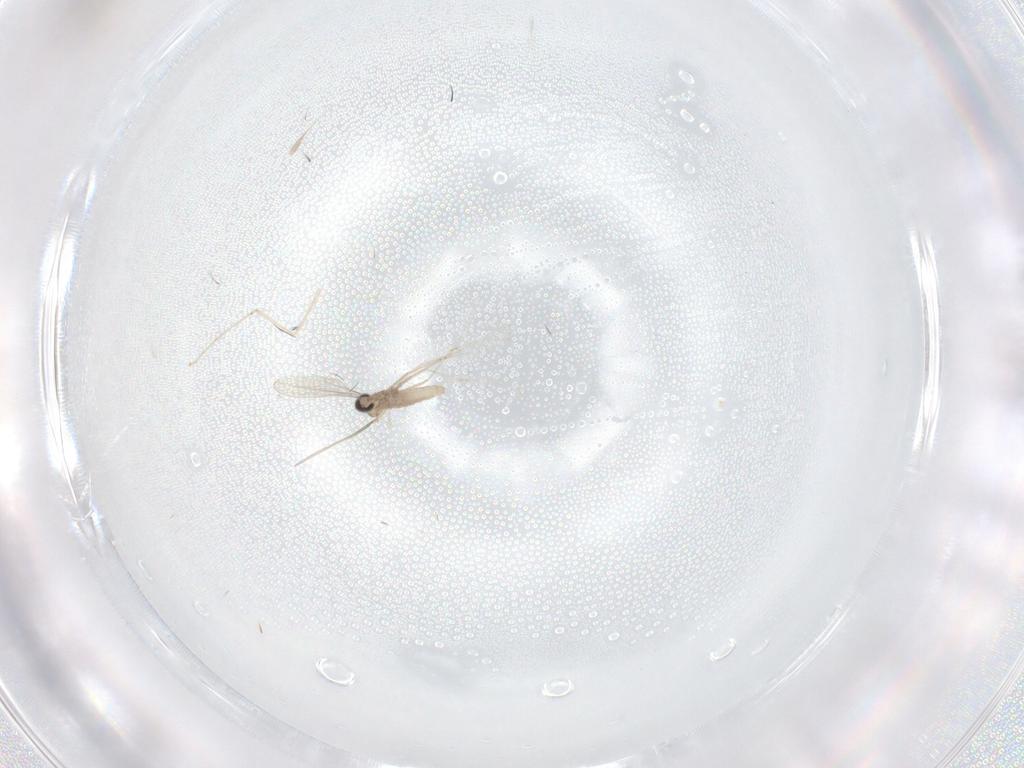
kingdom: Animalia
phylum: Arthropoda
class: Insecta
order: Diptera
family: Cecidomyiidae
